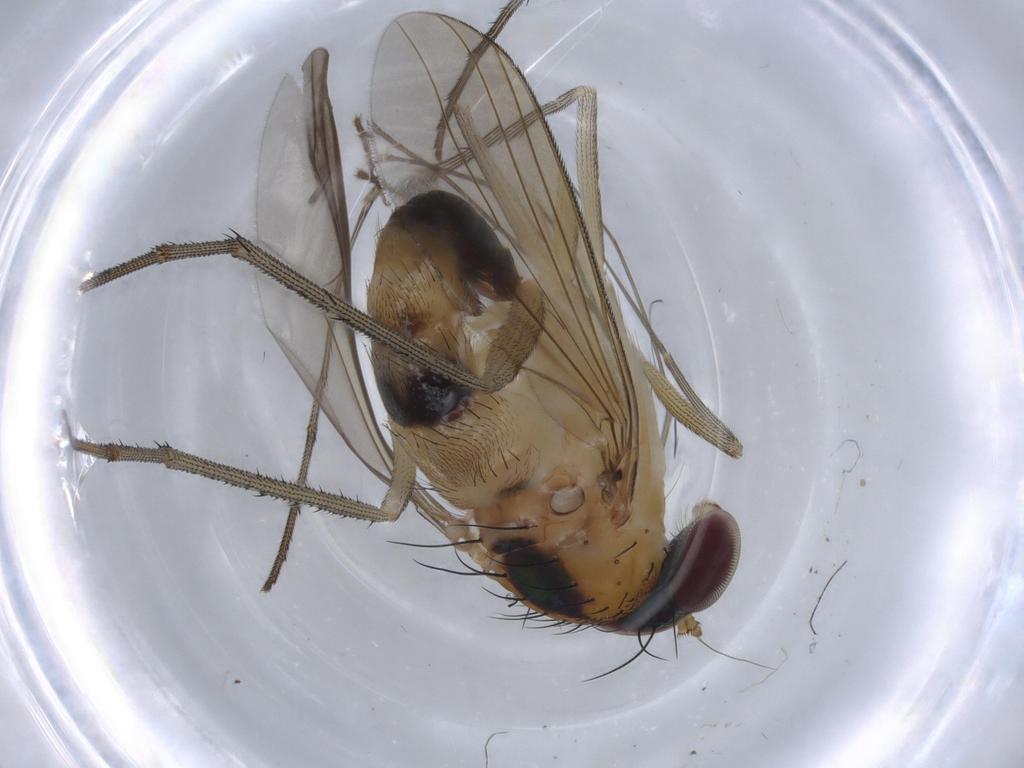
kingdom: Animalia
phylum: Arthropoda
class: Insecta
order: Diptera
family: Dolichopodidae
